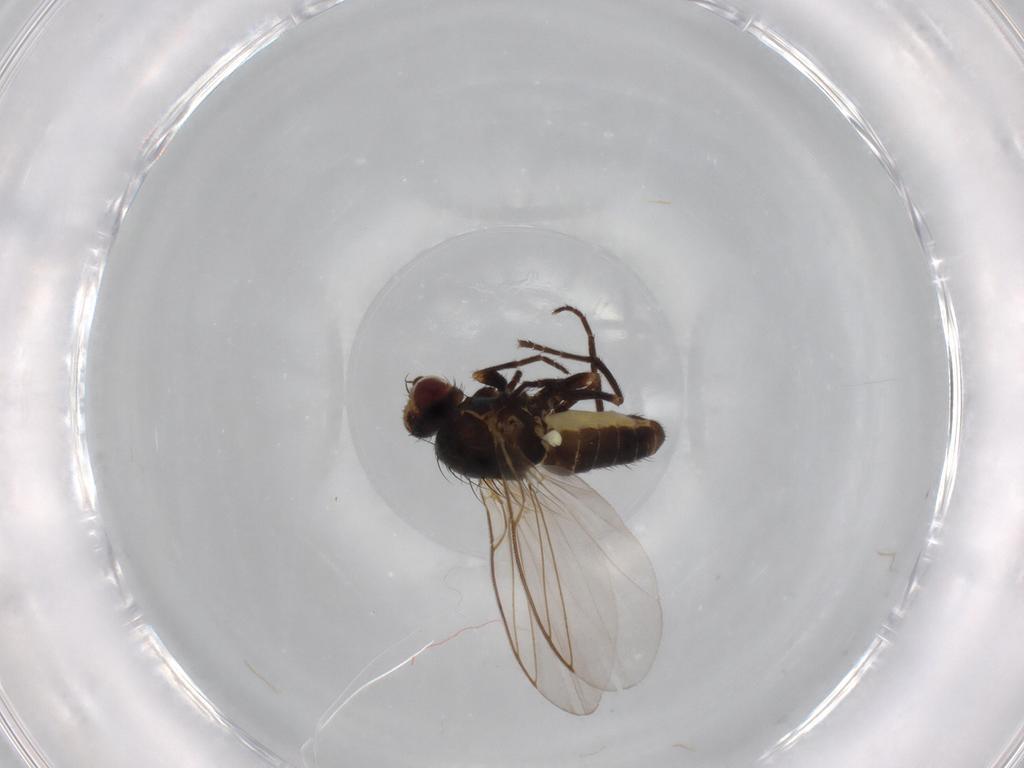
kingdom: Animalia
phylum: Arthropoda
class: Insecta
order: Diptera
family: Agromyzidae
